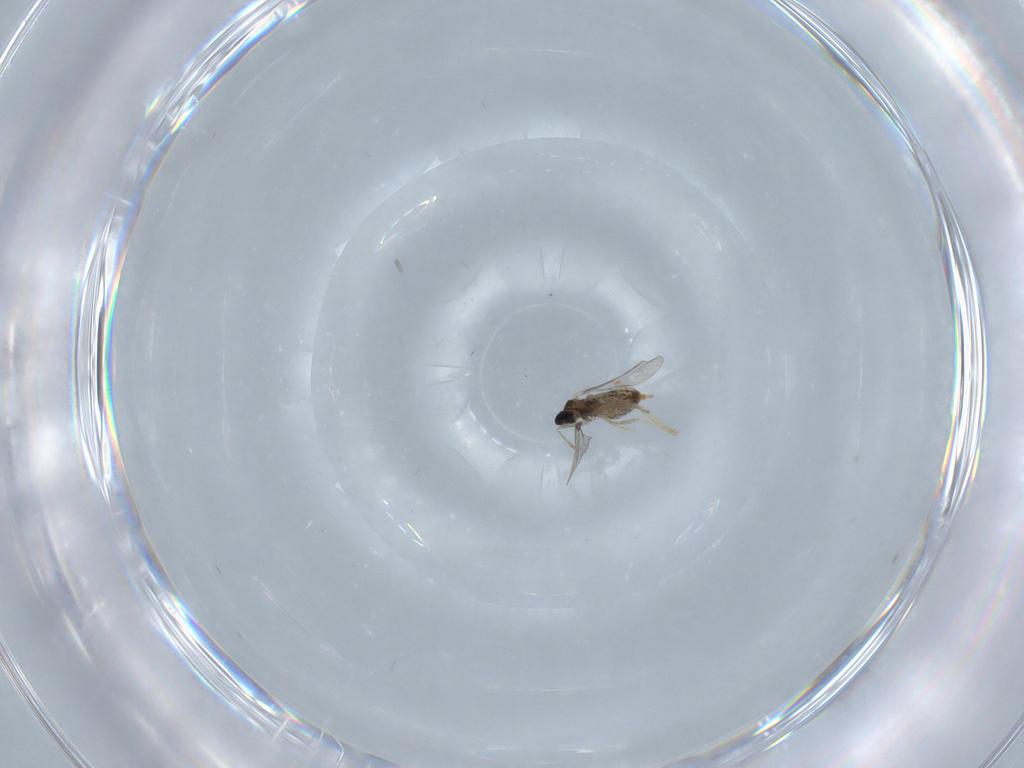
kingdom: Animalia
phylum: Arthropoda
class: Insecta
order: Diptera
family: Cecidomyiidae
